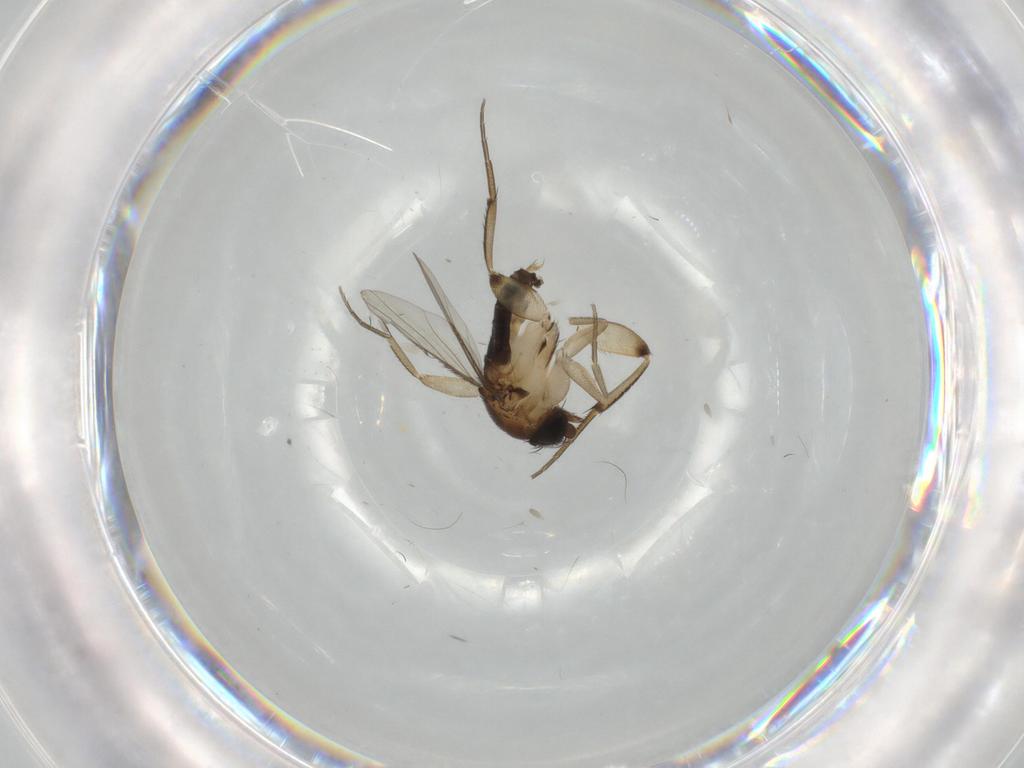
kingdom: Animalia
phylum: Arthropoda
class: Insecta
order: Diptera
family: Phoridae
